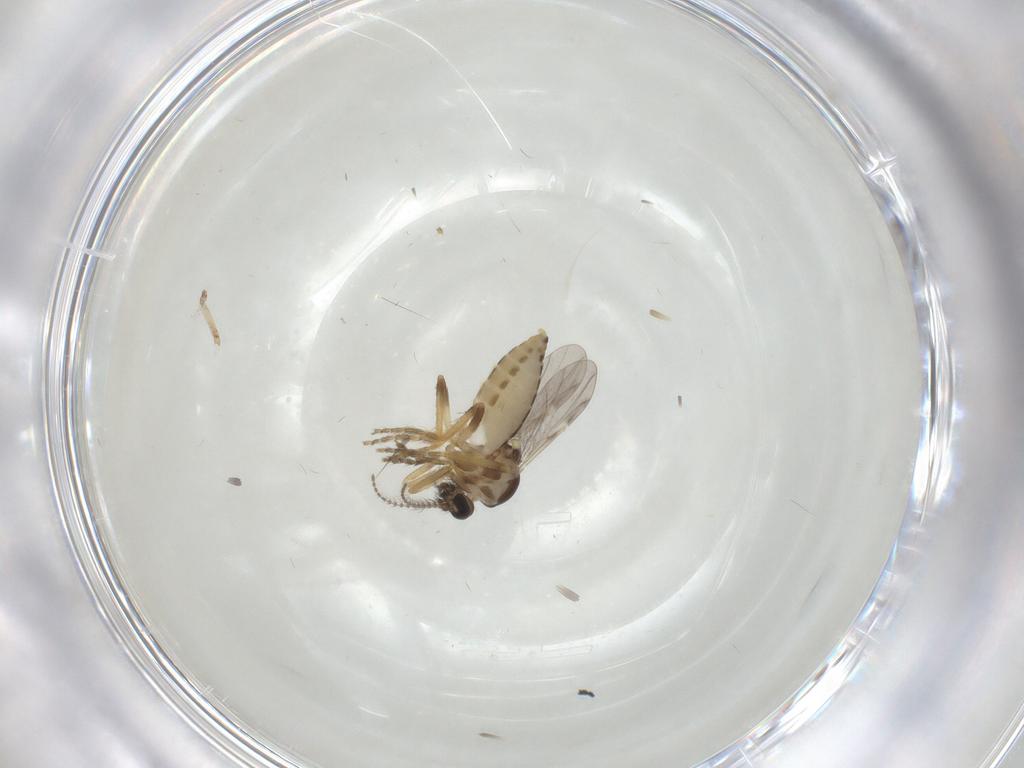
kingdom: Animalia
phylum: Arthropoda
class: Insecta
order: Diptera
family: Ceratopogonidae
